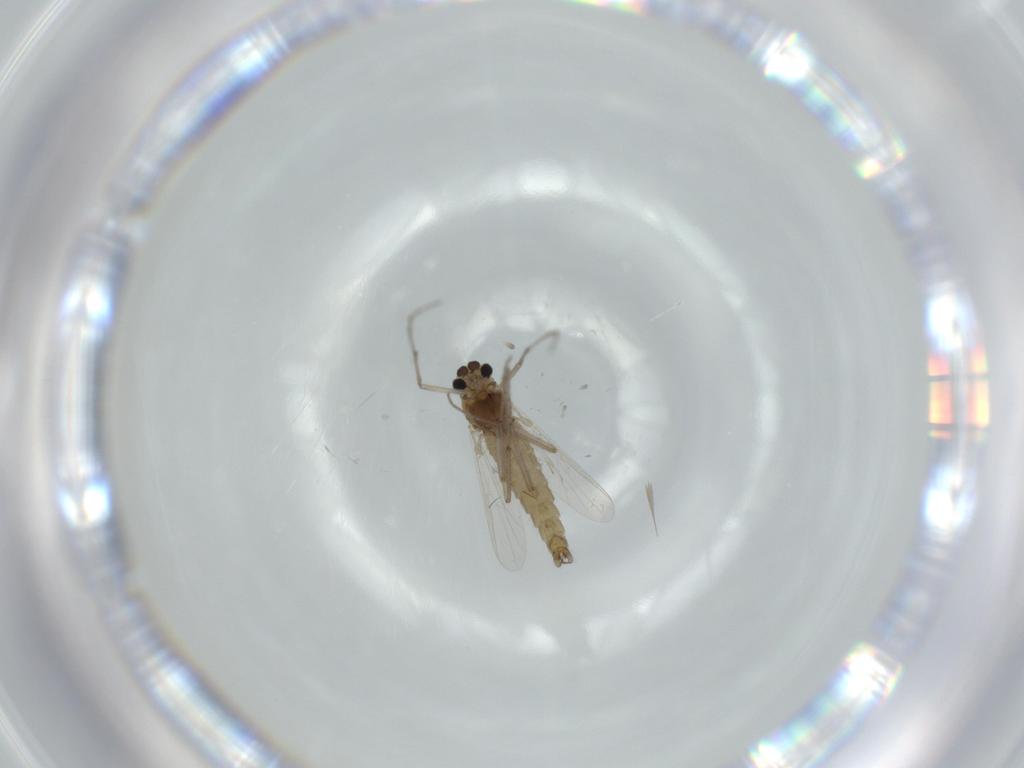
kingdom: Animalia
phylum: Arthropoda
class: Insecta
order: Diptera
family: Chironomidae
